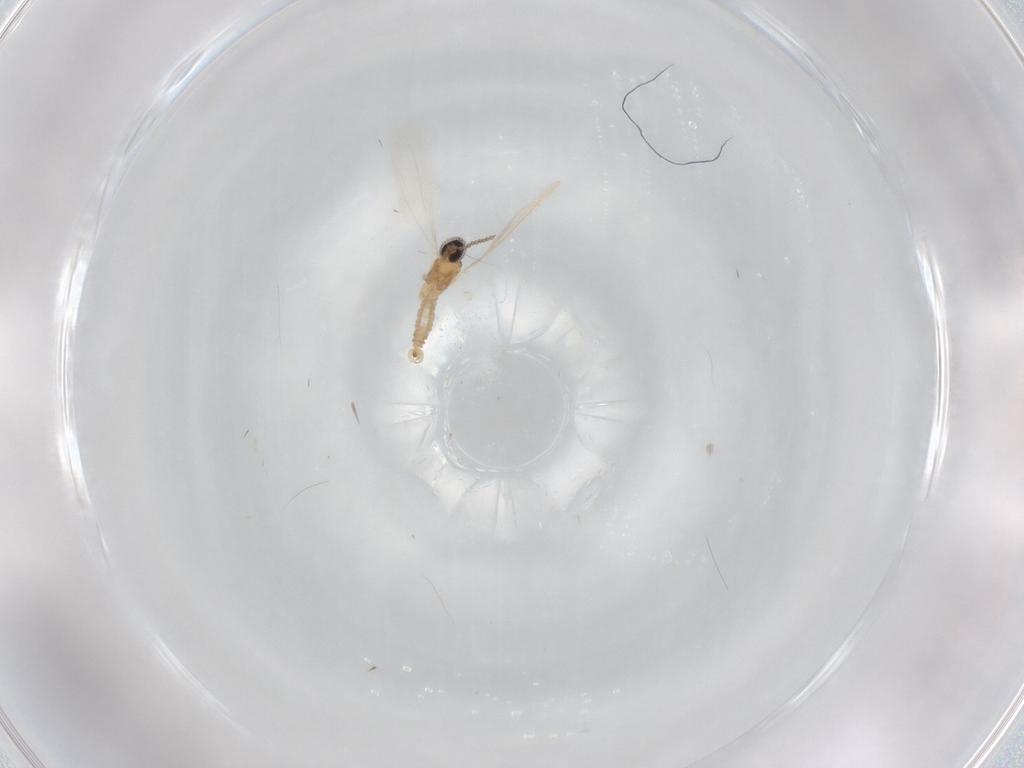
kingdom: Animalia
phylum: Arthropoda
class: Insecta
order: Diptera
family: Cecidomyiidae
